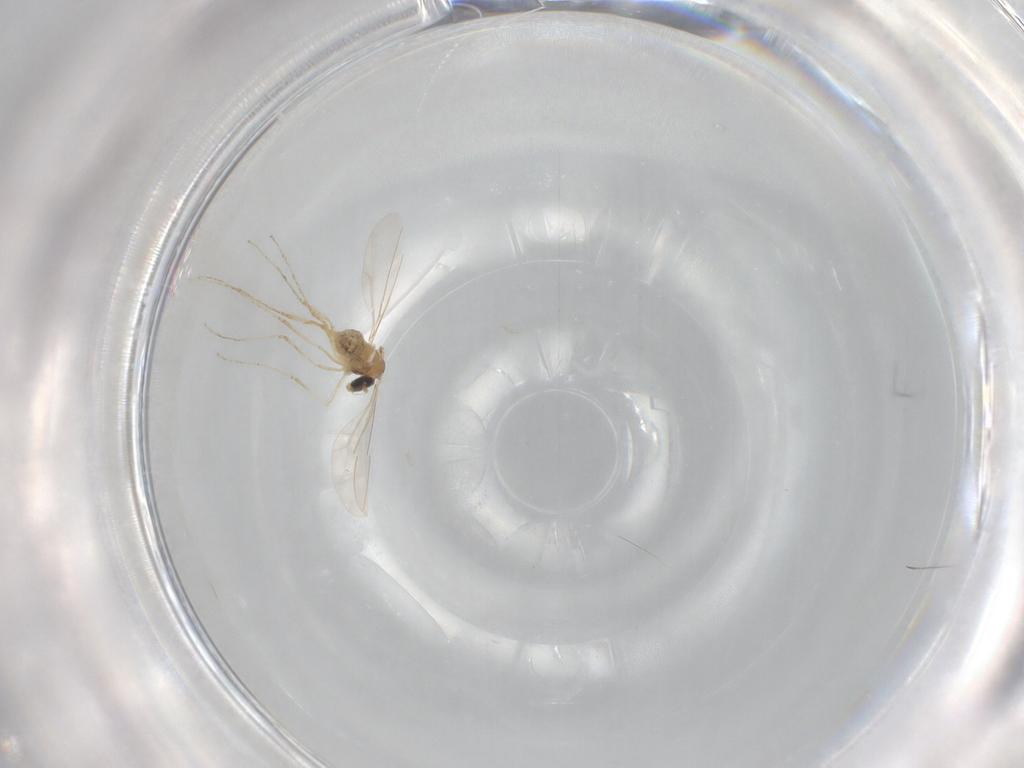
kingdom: Animalia
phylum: Arthropoda
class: Insecta
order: Diptera
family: Cecidomyiidae
